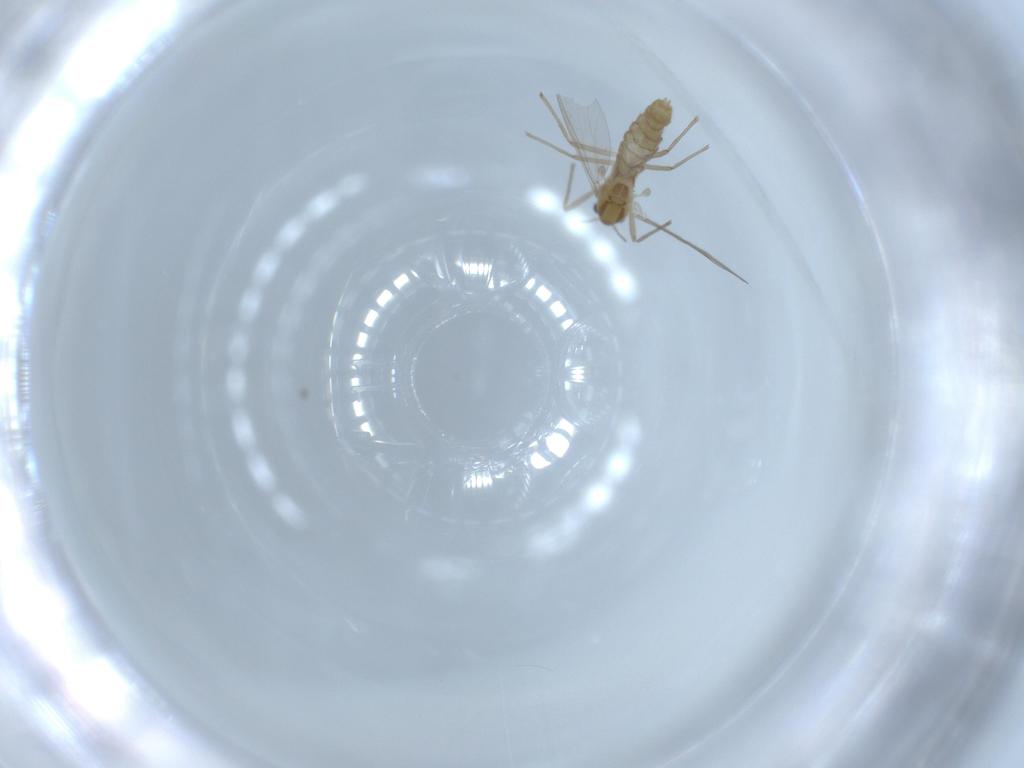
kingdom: Animalia
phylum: Arthropoda
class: Insecta
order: Diptera
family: Chironomidae
